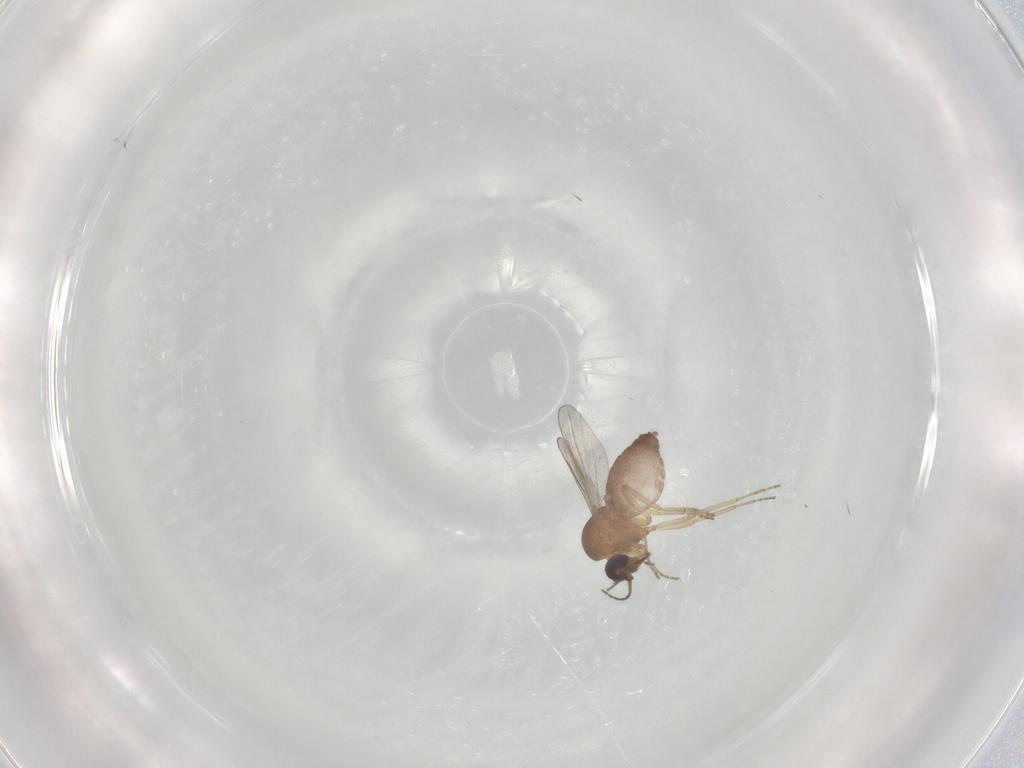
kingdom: Animalia
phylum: Arthropoda
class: Insecta
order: Diptera
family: Ceratopogonidae
